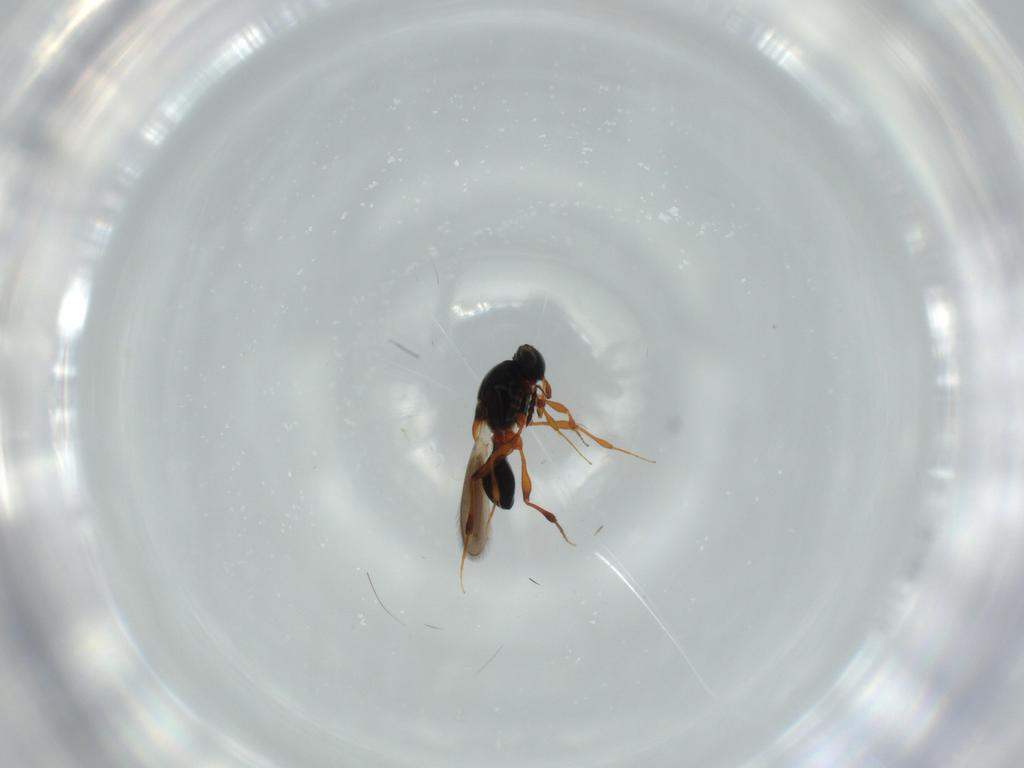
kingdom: Animalia
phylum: Arthropoda
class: Insecta
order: Hymenoptera
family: Platygastridae
